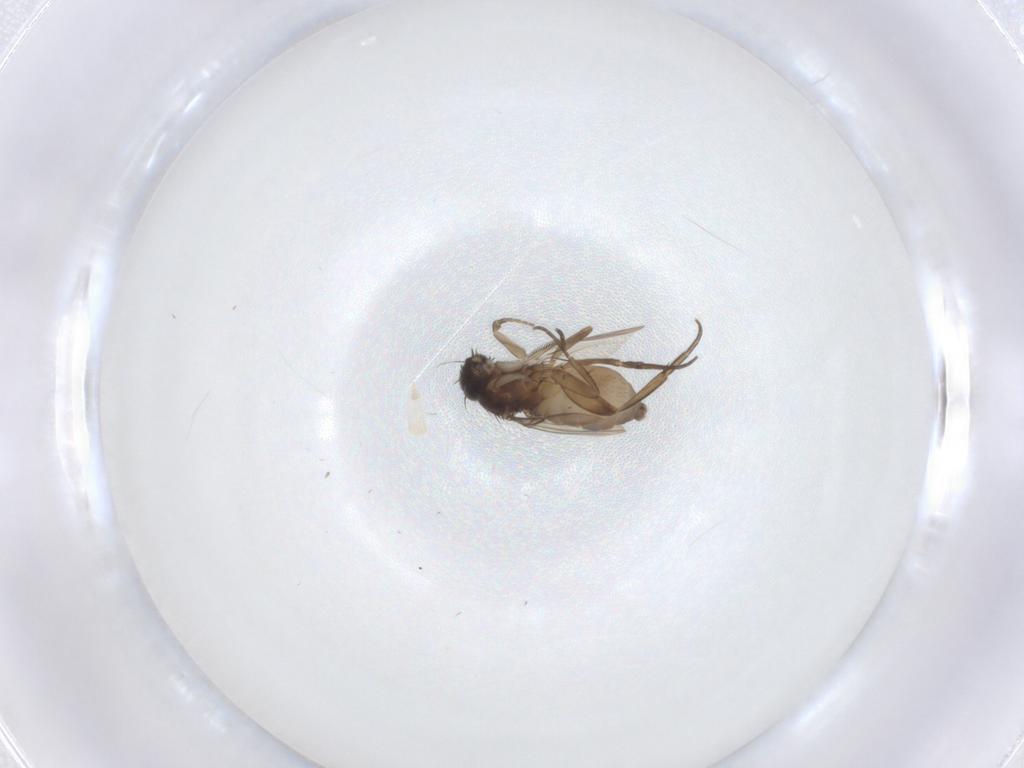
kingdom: Animalia
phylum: Arthropoda
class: Insecta
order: Diptera
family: Phoridae
